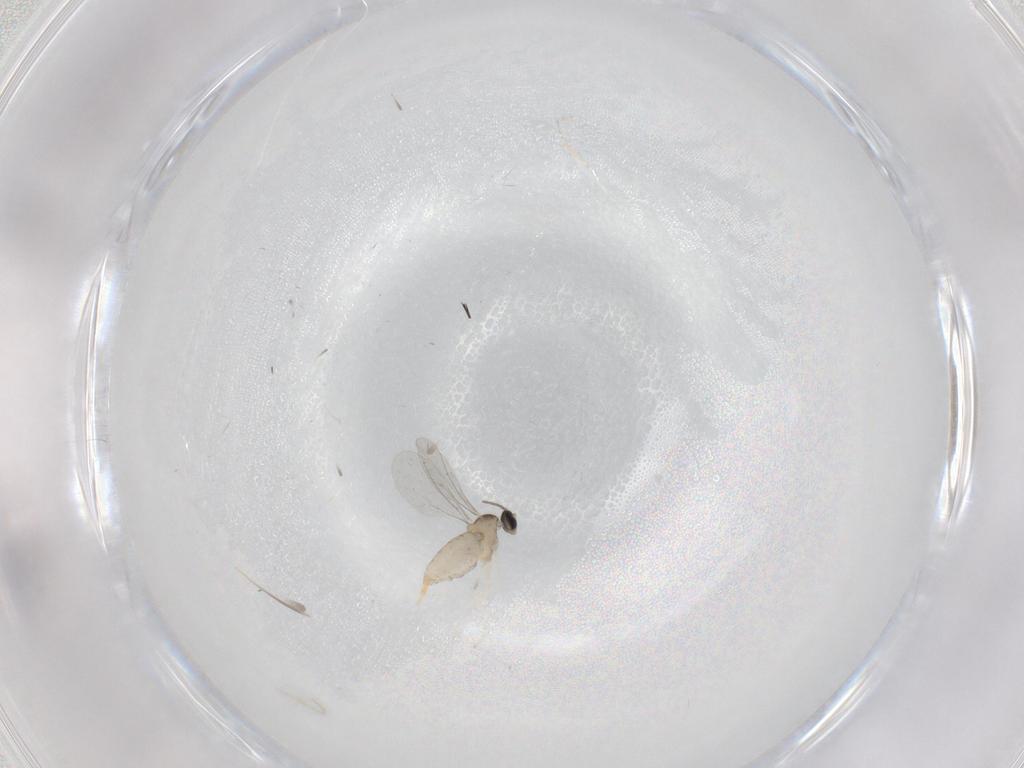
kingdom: Animalia
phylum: Arthropoda
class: Insecta
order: Diptera
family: Cecidomyiidae
